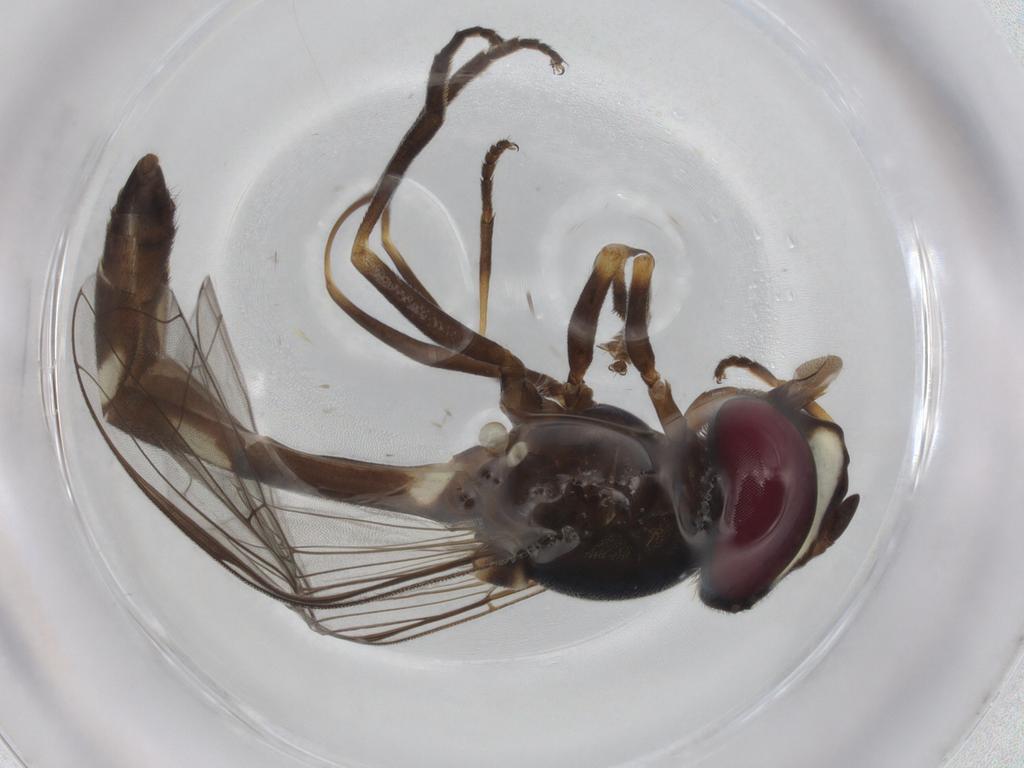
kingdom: Animalia
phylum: Arthropoda
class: Insecta
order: Diptera
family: Syrphidae
